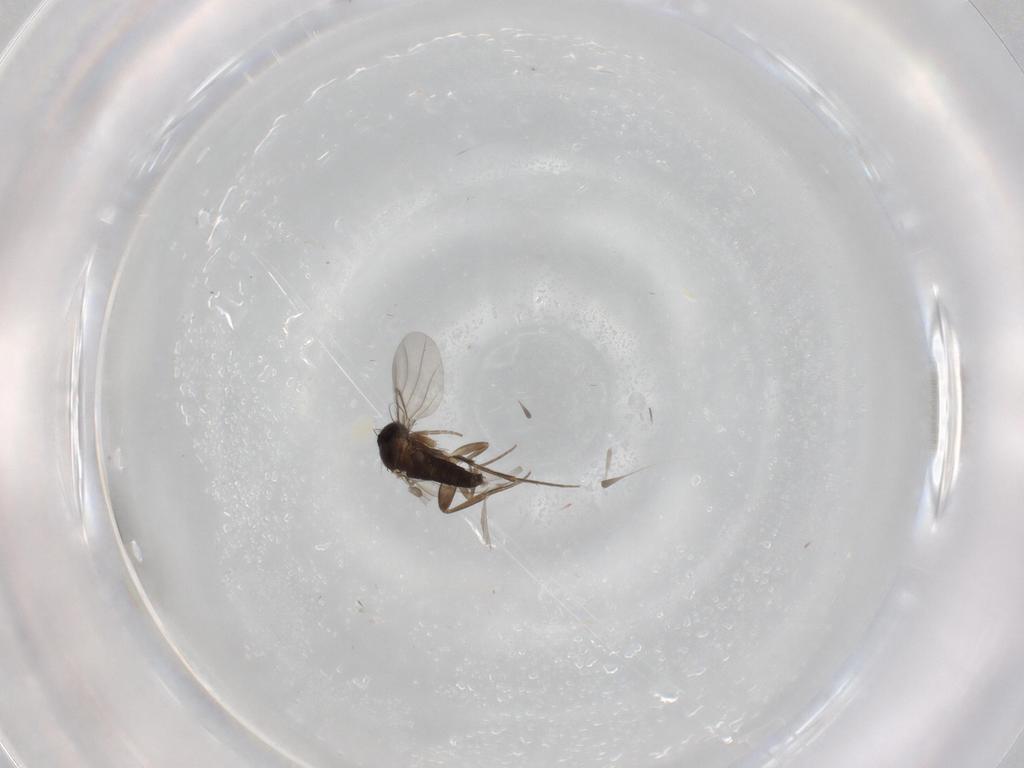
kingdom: Animalia
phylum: Arthropoda
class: Insecta
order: Diptera
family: Phoridae
